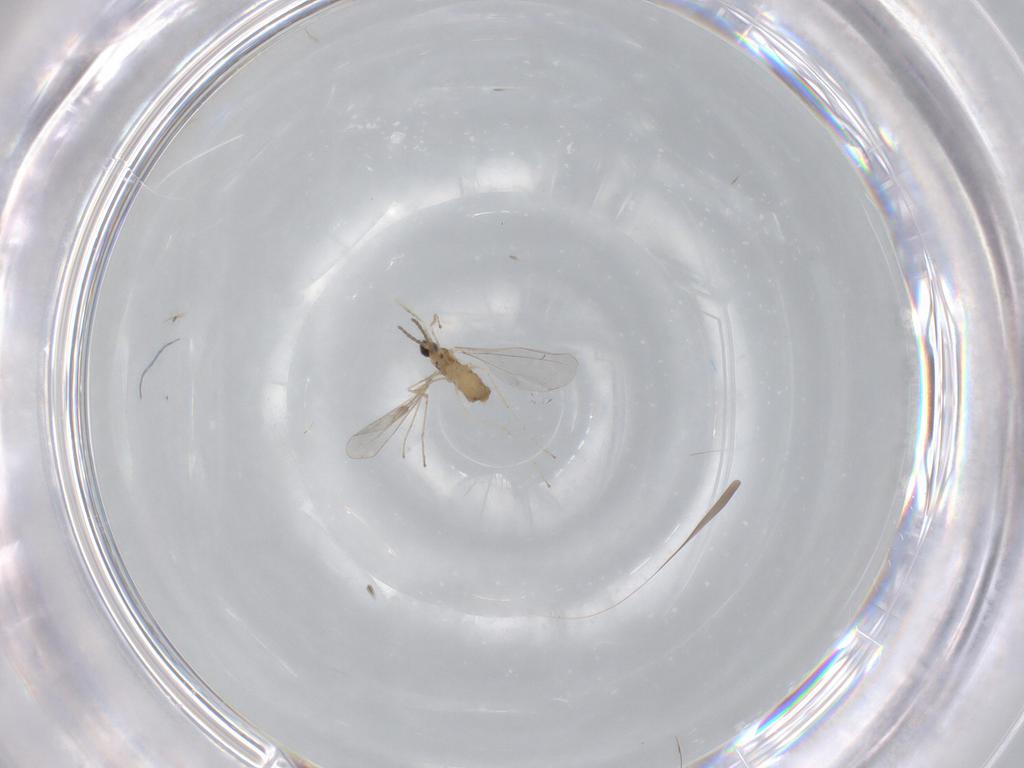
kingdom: Animalia
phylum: Arthropoda
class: Insecta
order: Diptera
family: Cecidomyiidae
